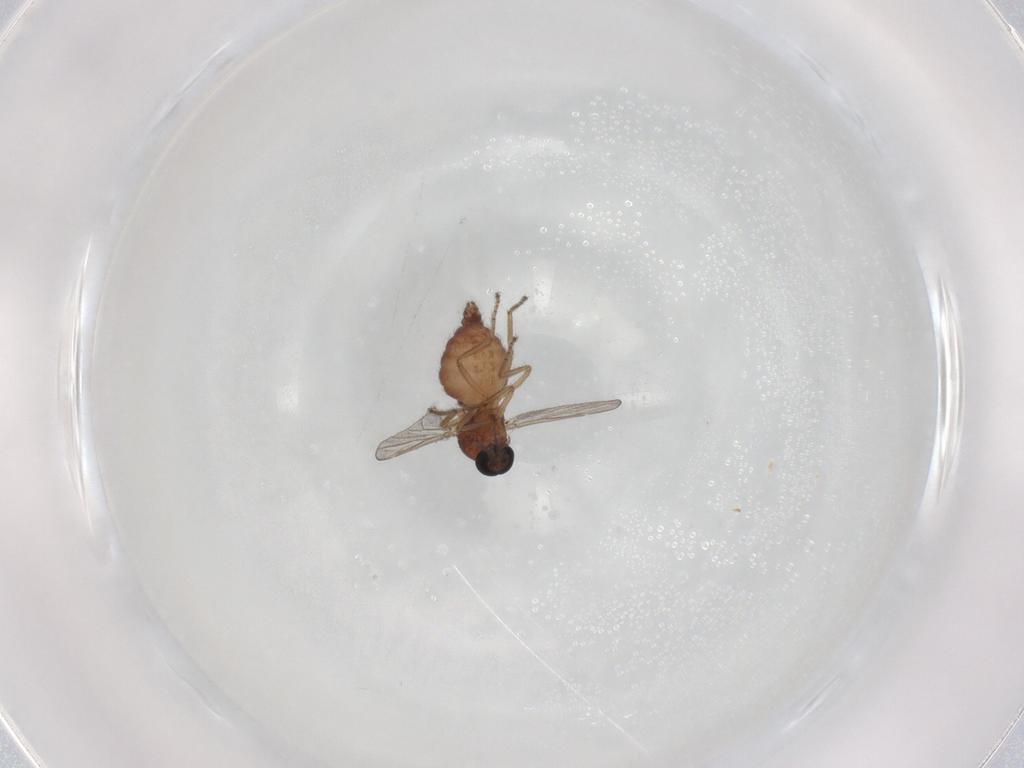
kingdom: Animalia
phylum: Arthropoda
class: Insecta
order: Diptera
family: Ceratopogonidae
